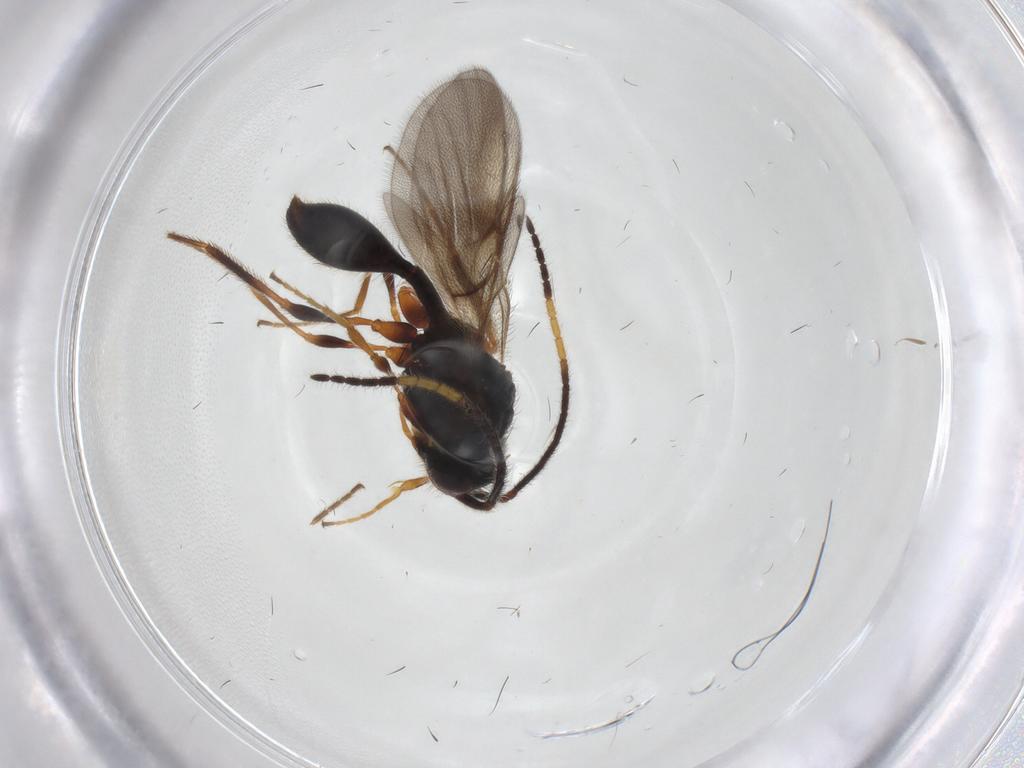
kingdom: Animalia
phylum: Arthropoda
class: Insecta
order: Hymenoptera
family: Diapriidae
